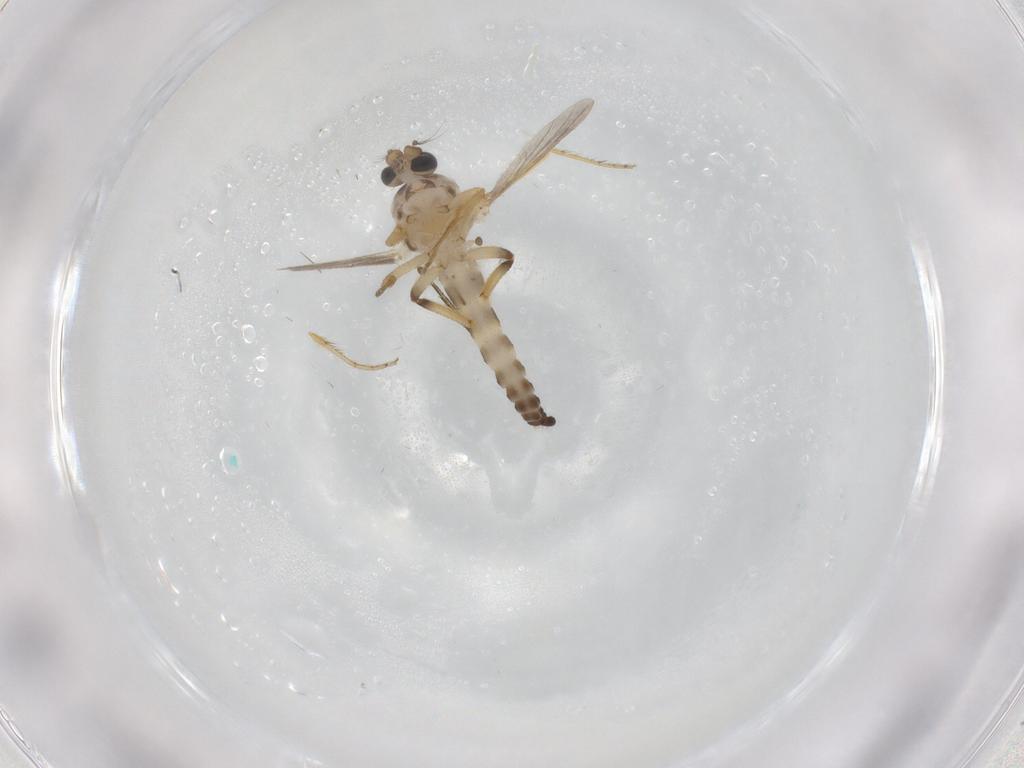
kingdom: Animalia
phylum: Arthropoda
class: Insecta
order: Diptera
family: Ceratopogonidae
